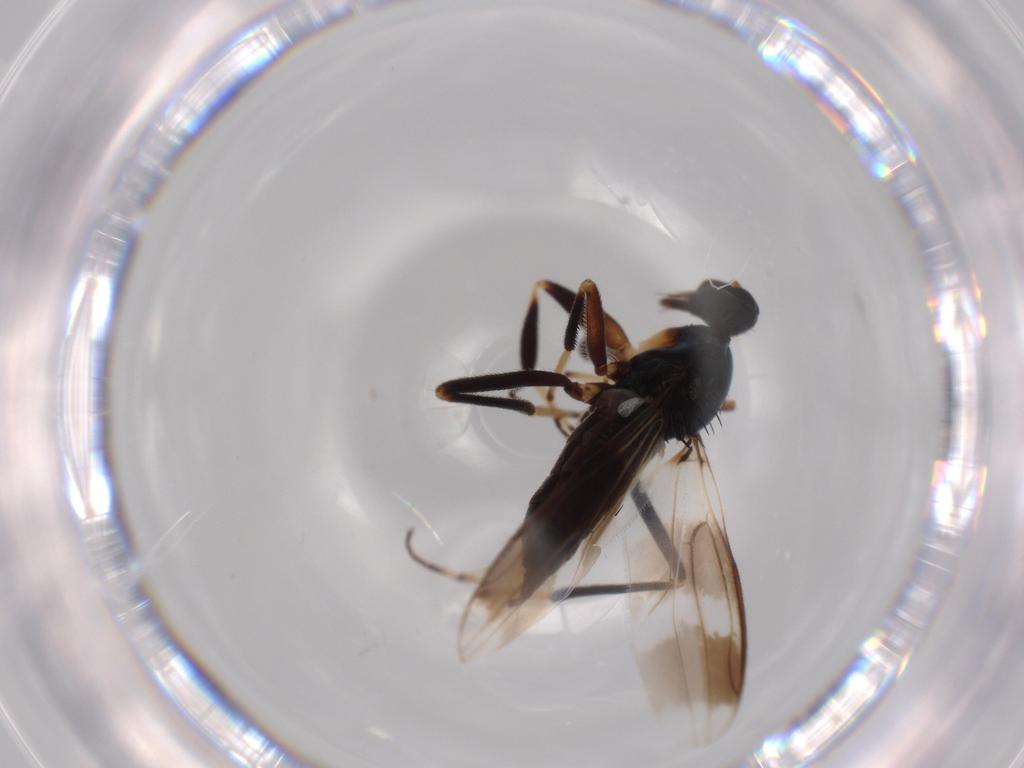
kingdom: Animalia
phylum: Arthropoda
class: Insecta
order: Diptera
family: Hybotidae
